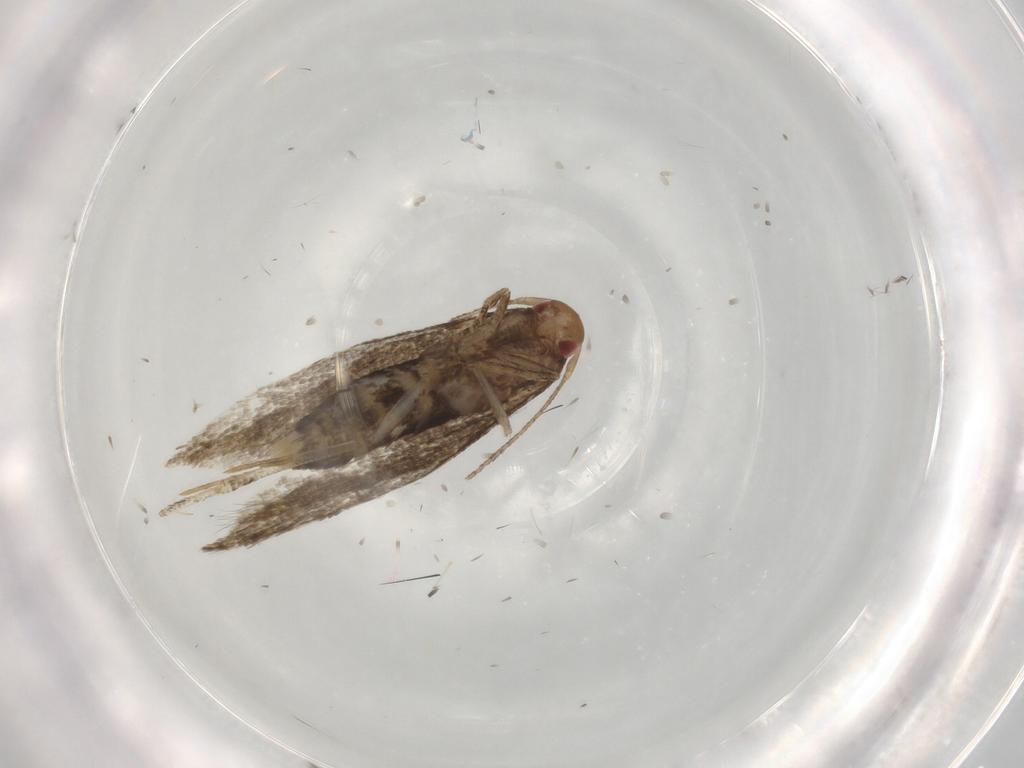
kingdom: Animalia
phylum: Arthropoda
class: Insecta
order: Lepidoptera
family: Momphidae
